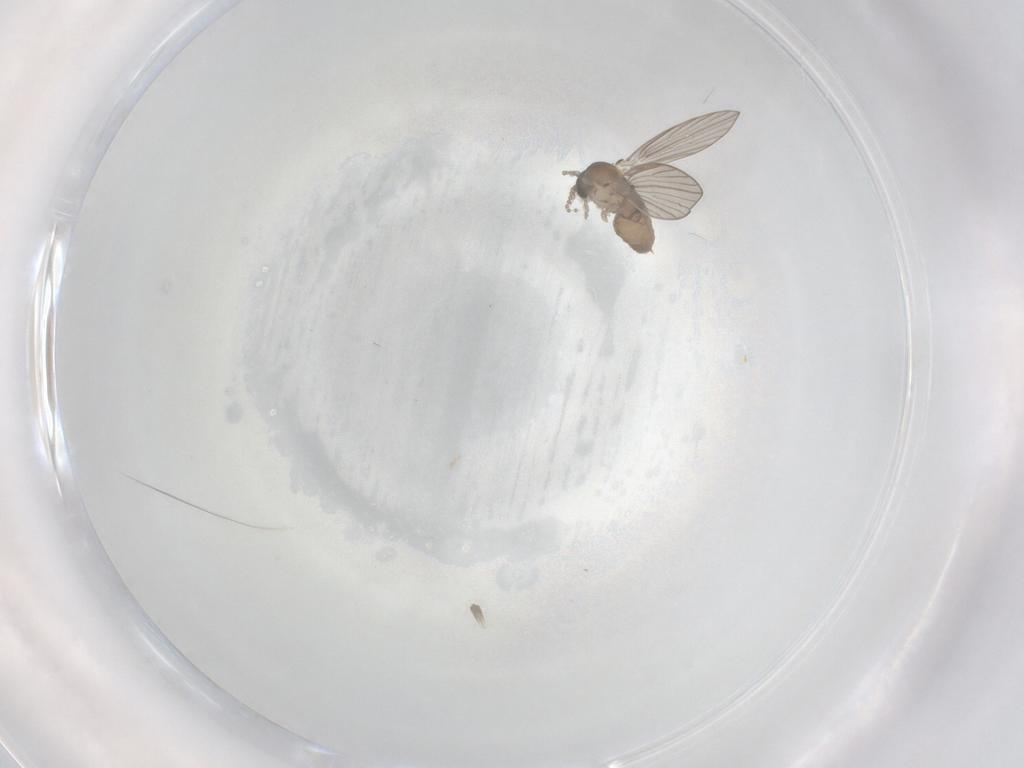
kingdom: Animalia
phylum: Arthropoda
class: Insecta
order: Diptera
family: Psychodidae
